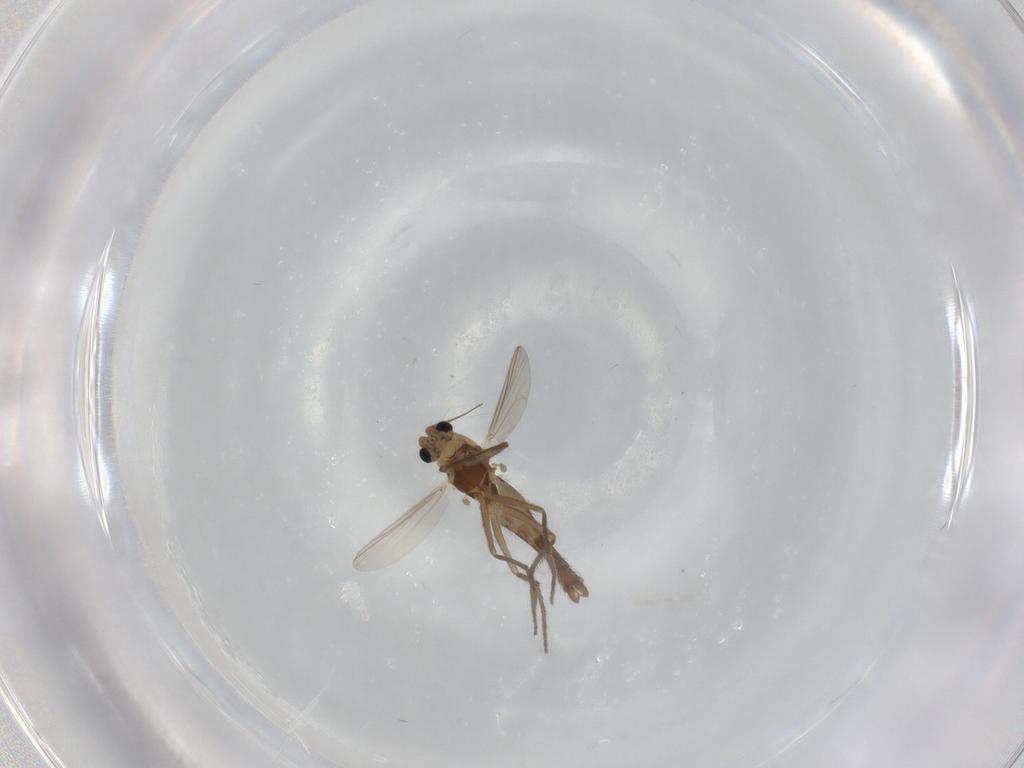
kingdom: Animalia
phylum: Arthropoda
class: Insecta
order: Diptera
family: Chironomidae
